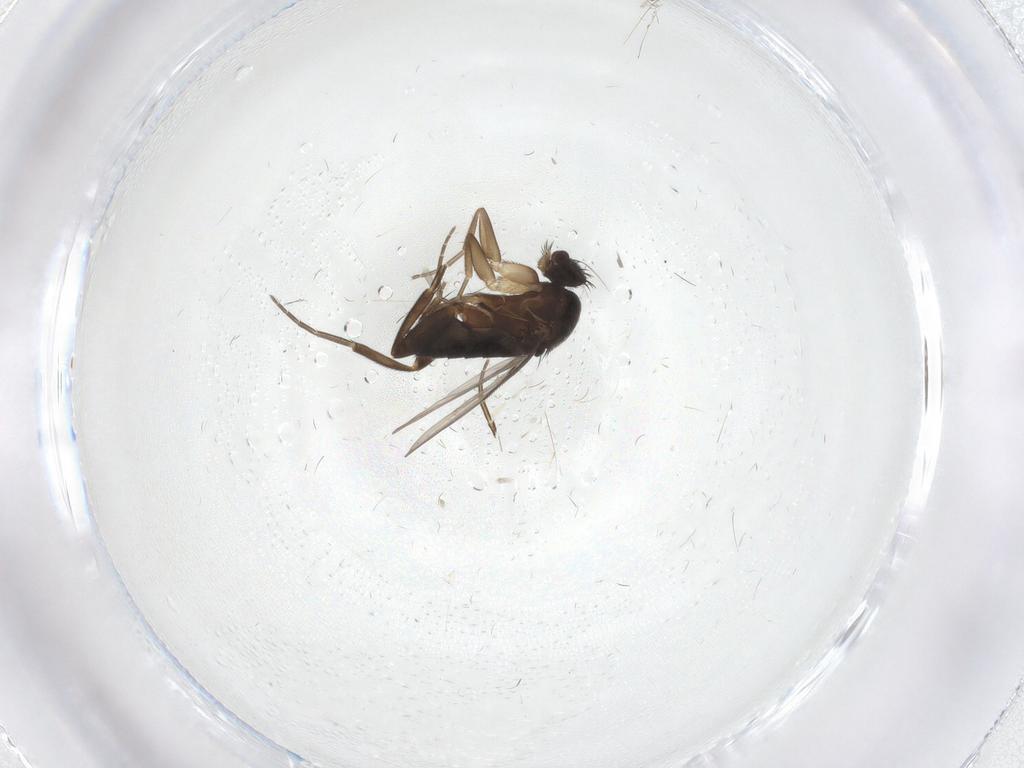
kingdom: Animalia
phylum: Arthropoda
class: Insecta
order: Diptera
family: Phoridae
